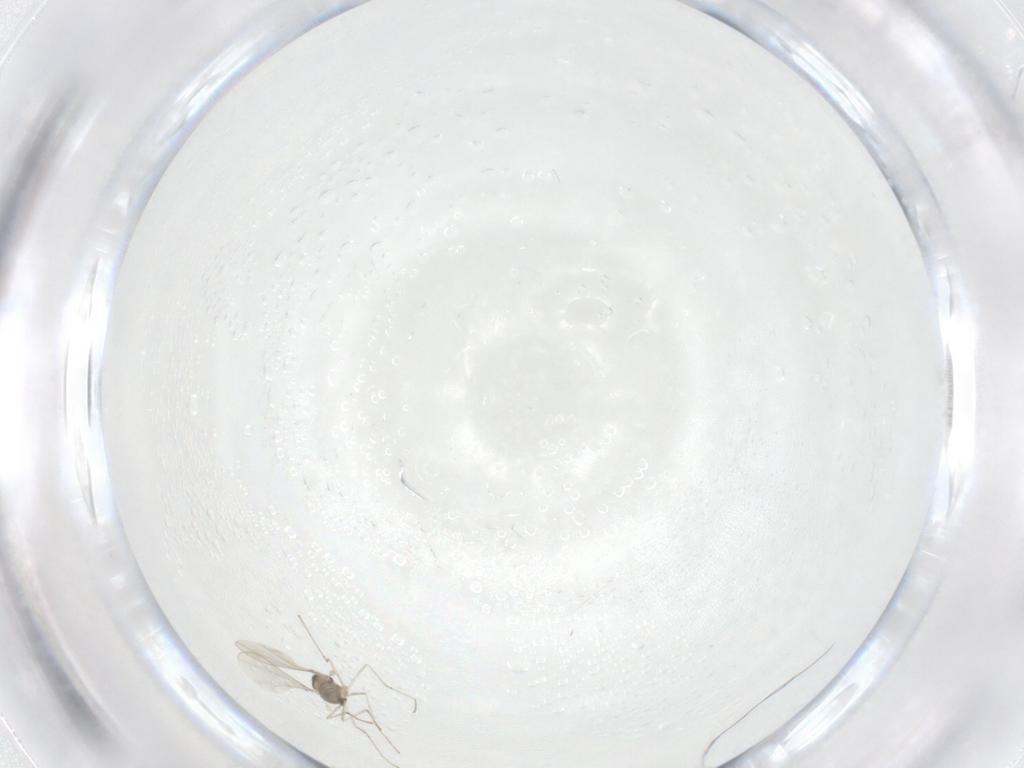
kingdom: Animalia
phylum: Arthropoda
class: Insecta
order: Diptera
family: Cecidomyiidae
